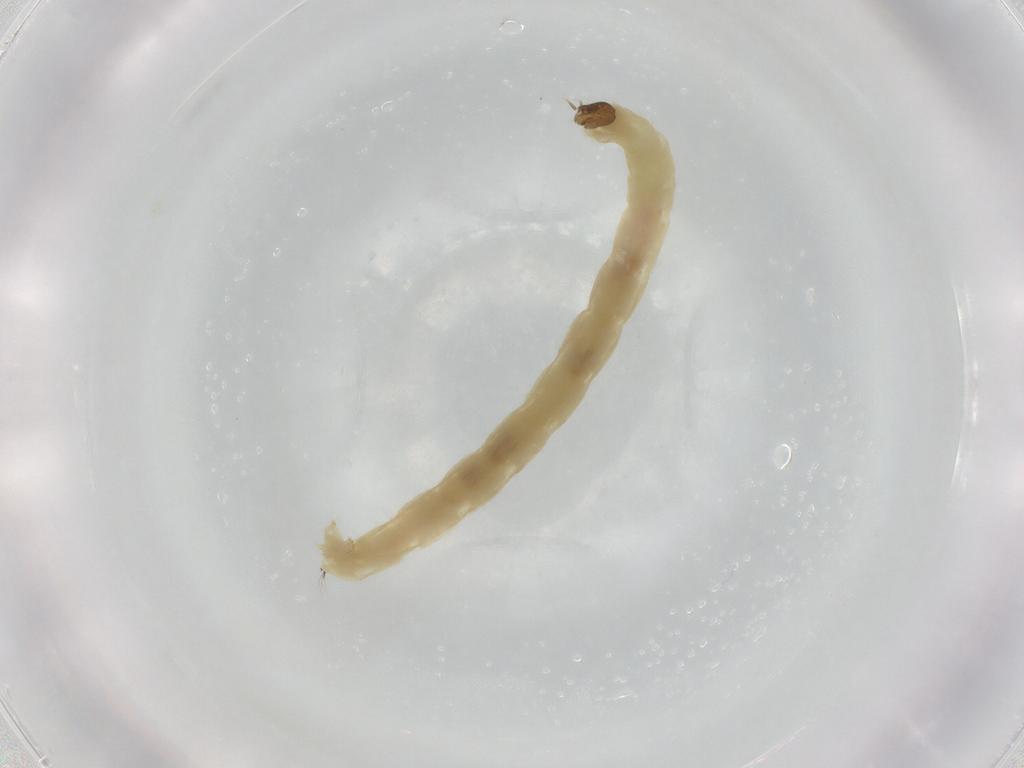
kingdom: Animalia
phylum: Arthropoda
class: Insecta
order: Diptera
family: Chironomidae
